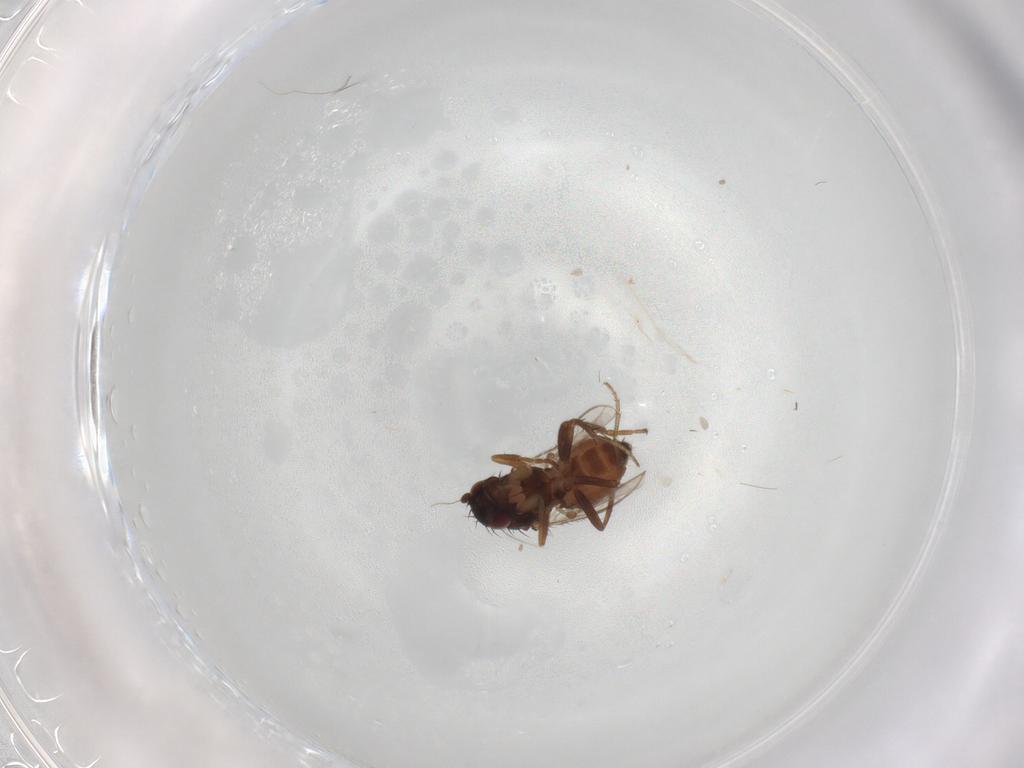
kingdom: Animalia
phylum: Arthropoda
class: Insecta
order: Diptera
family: Sphaeroceridae
